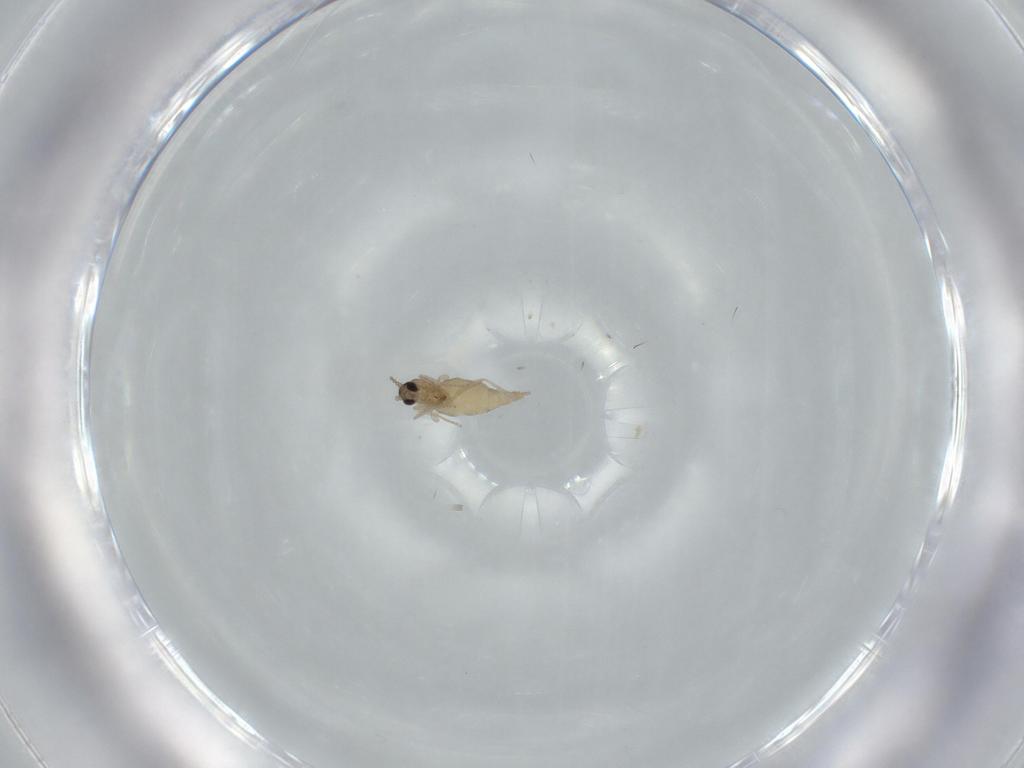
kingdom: Animalia
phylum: Arthropoda
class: Insecta
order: Diptera
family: Cecidomyiidae
